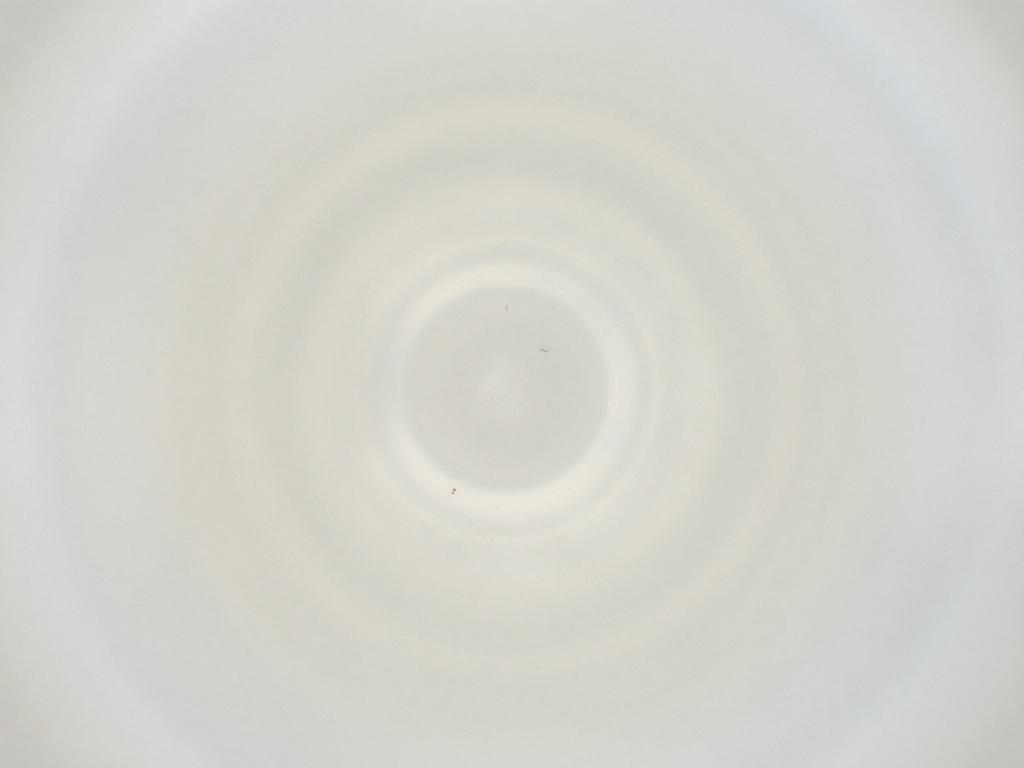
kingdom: Animalia
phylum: Arthropoda
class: Insecta
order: Diptera
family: Cecidomyiidae
